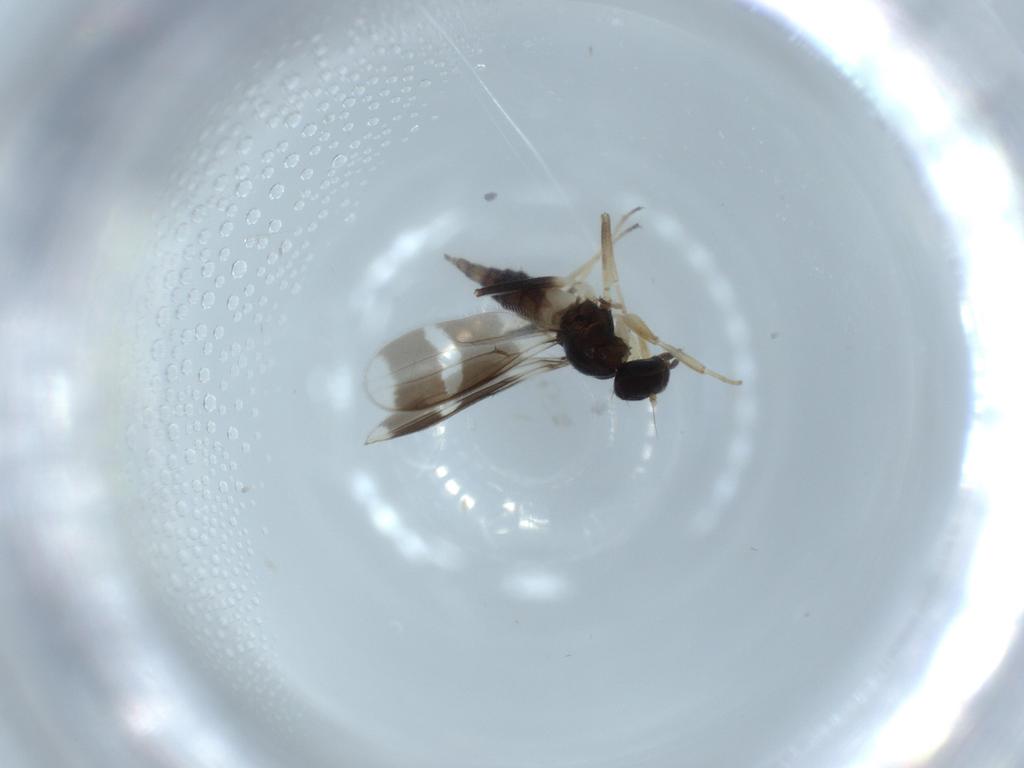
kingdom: Animalia
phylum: Arthropoda
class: Insecta
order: Diptera
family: Hybotidae
